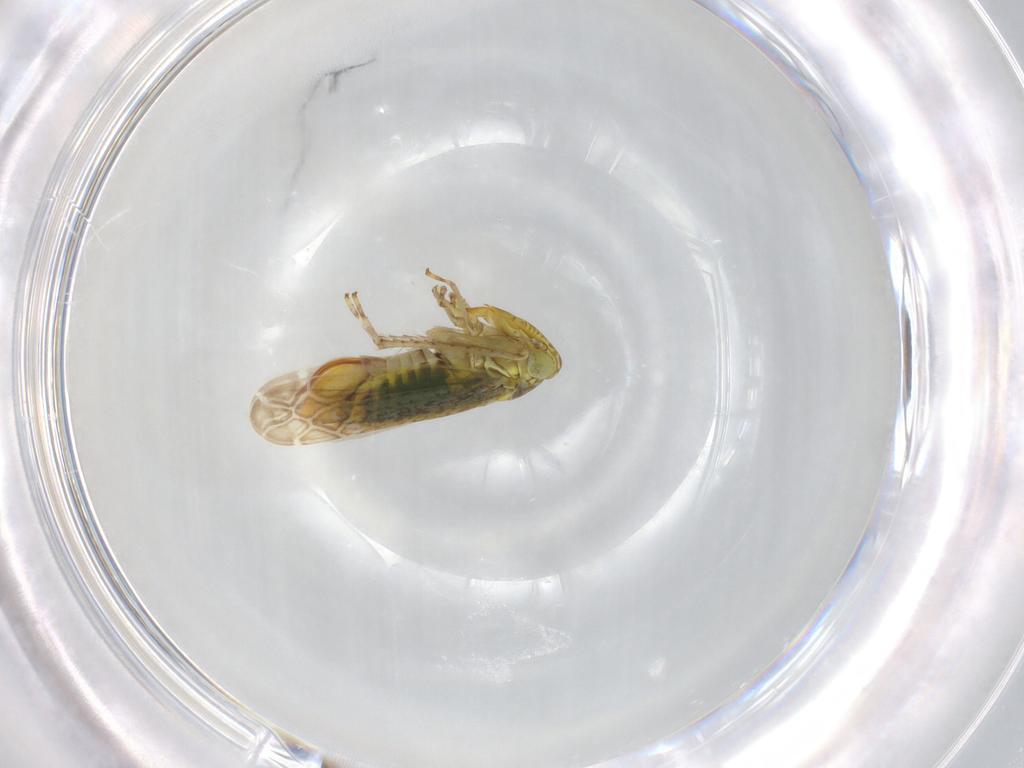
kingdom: Animalia
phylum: Arthropoda
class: Insecta
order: Hemiptera
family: Cicadellidae
